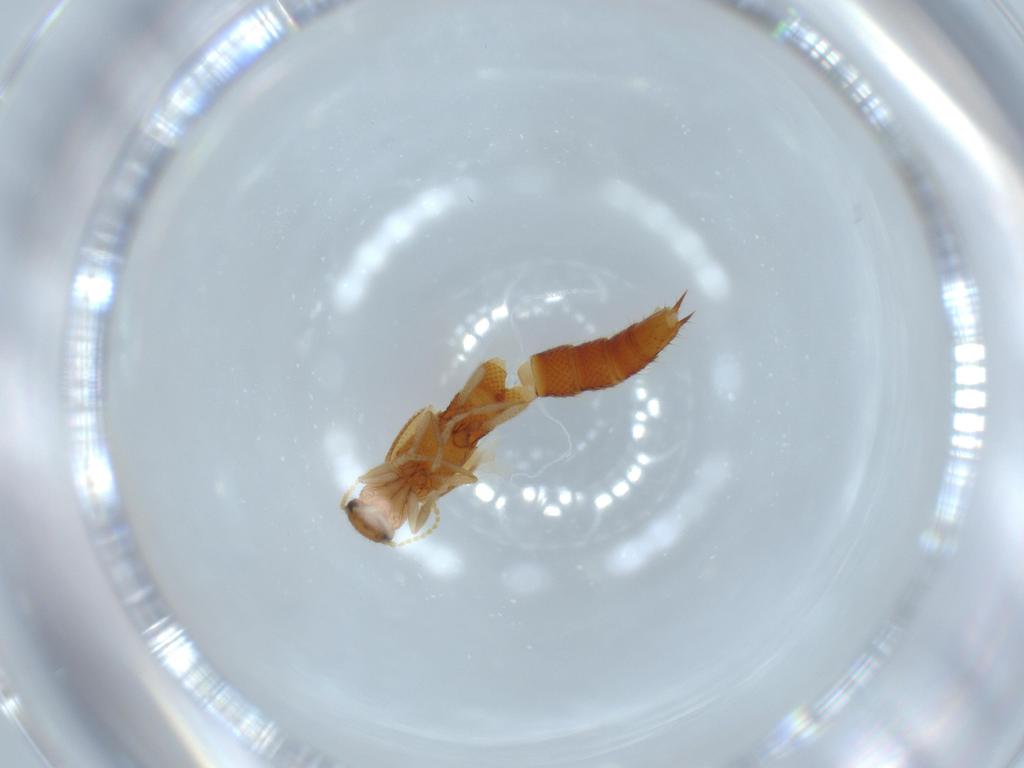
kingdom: Animalia
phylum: Arthropoda
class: Insecta
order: Coleoptera
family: Staphylinidae
